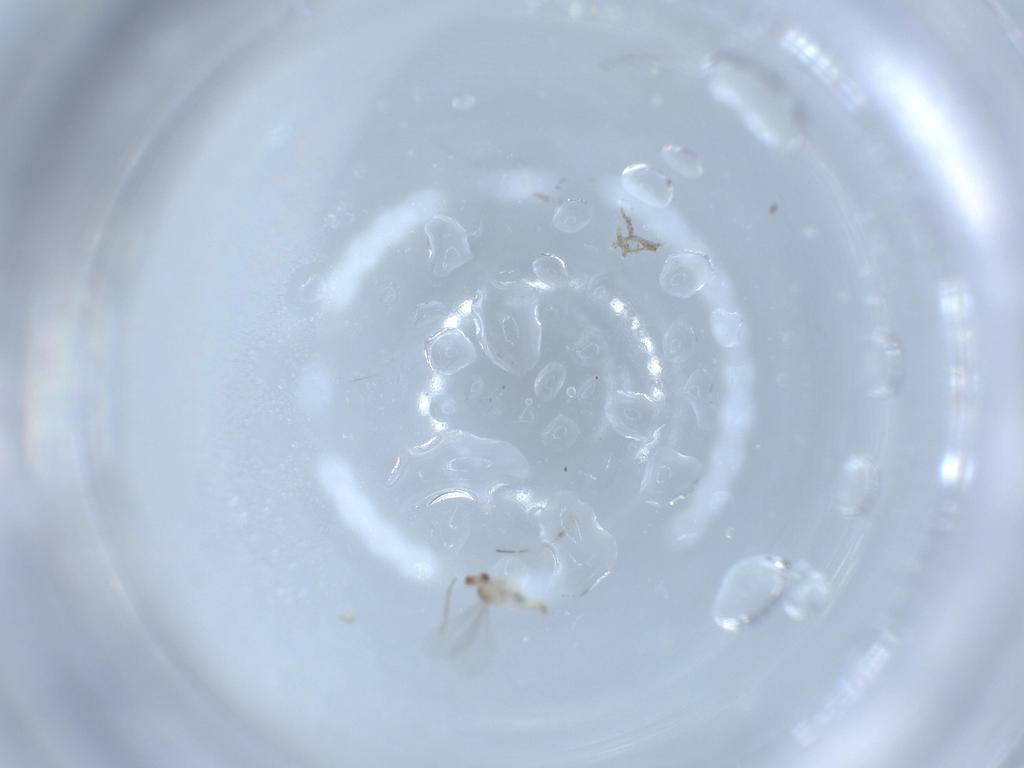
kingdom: Animalia
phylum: Arthropoda
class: Insecta
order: Diptera
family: Cecidomyiidae
